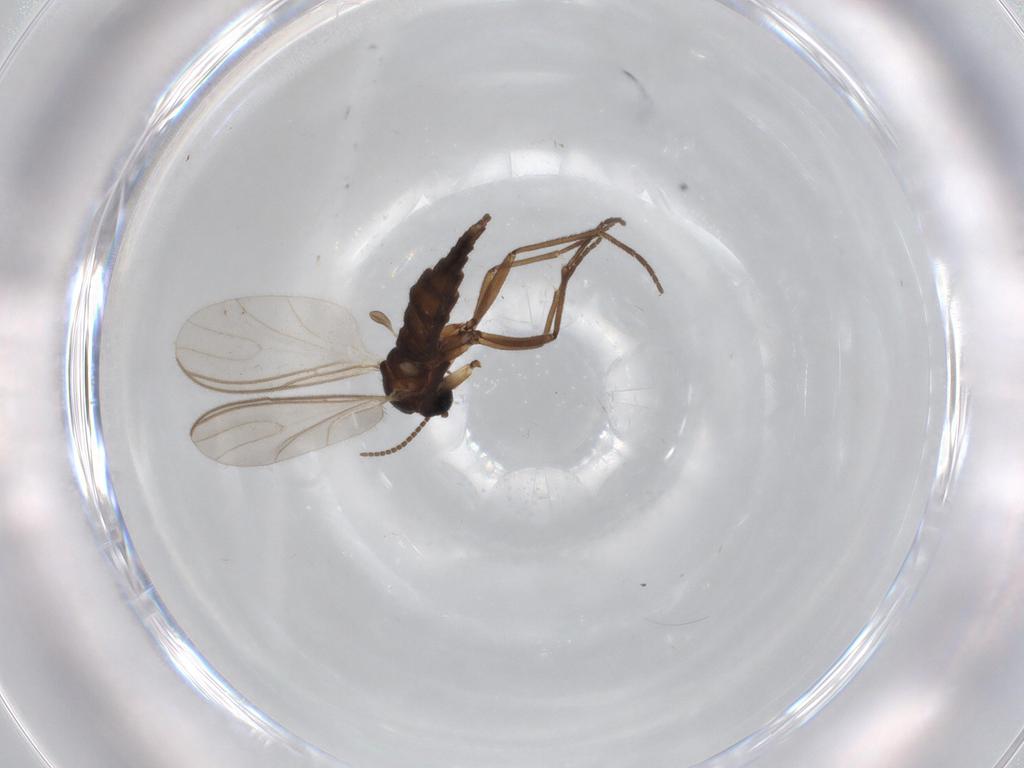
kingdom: Animalia
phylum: Arthropoda
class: Insecta
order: Diptera
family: Sciaridae
